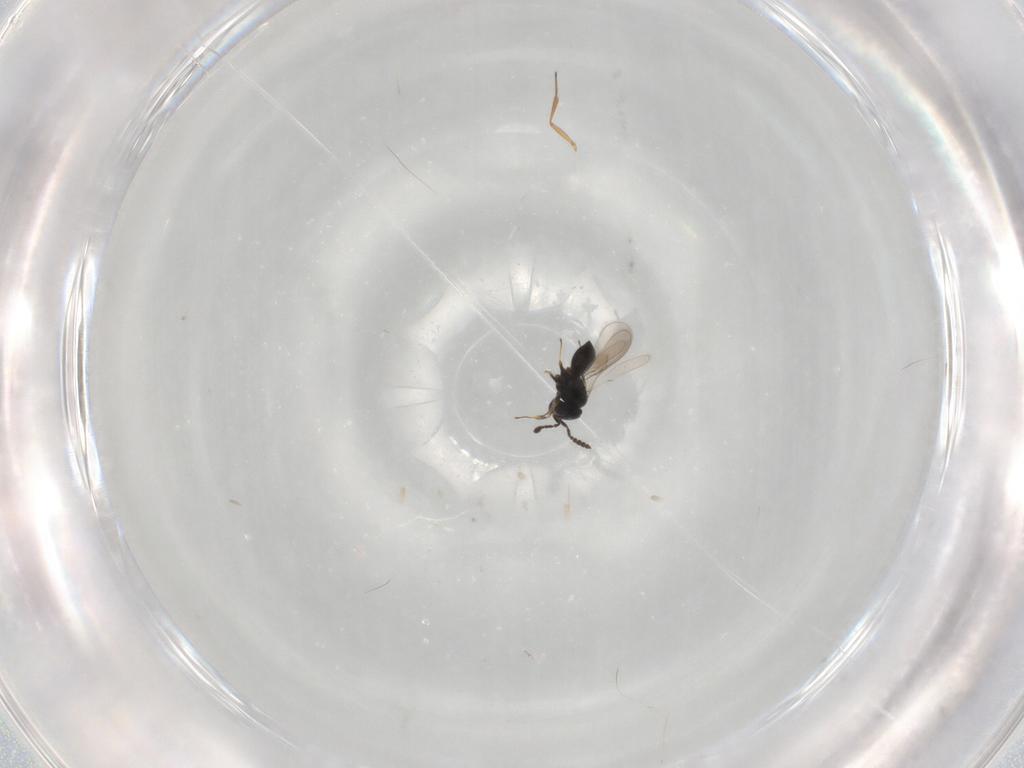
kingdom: Animalia
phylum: Arthropoda
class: Insecta
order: Hymenoptera
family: Scelionidae
